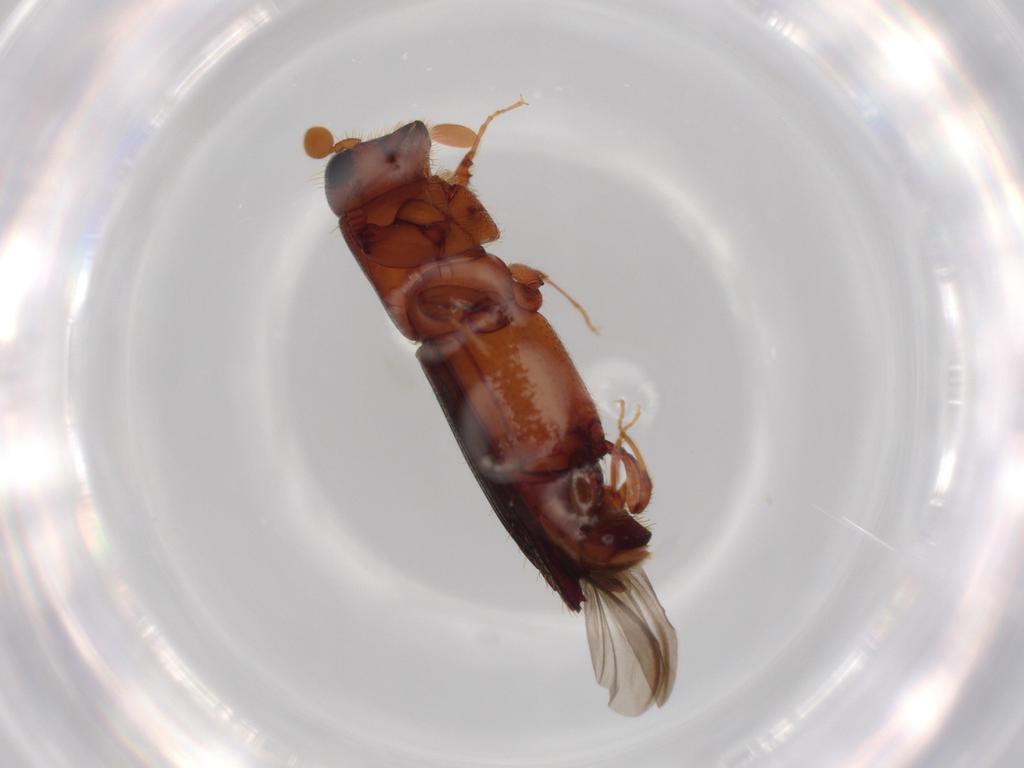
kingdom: Animalia
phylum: Arthropoda
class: Insecta
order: Coleoptera
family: Curculionidae
